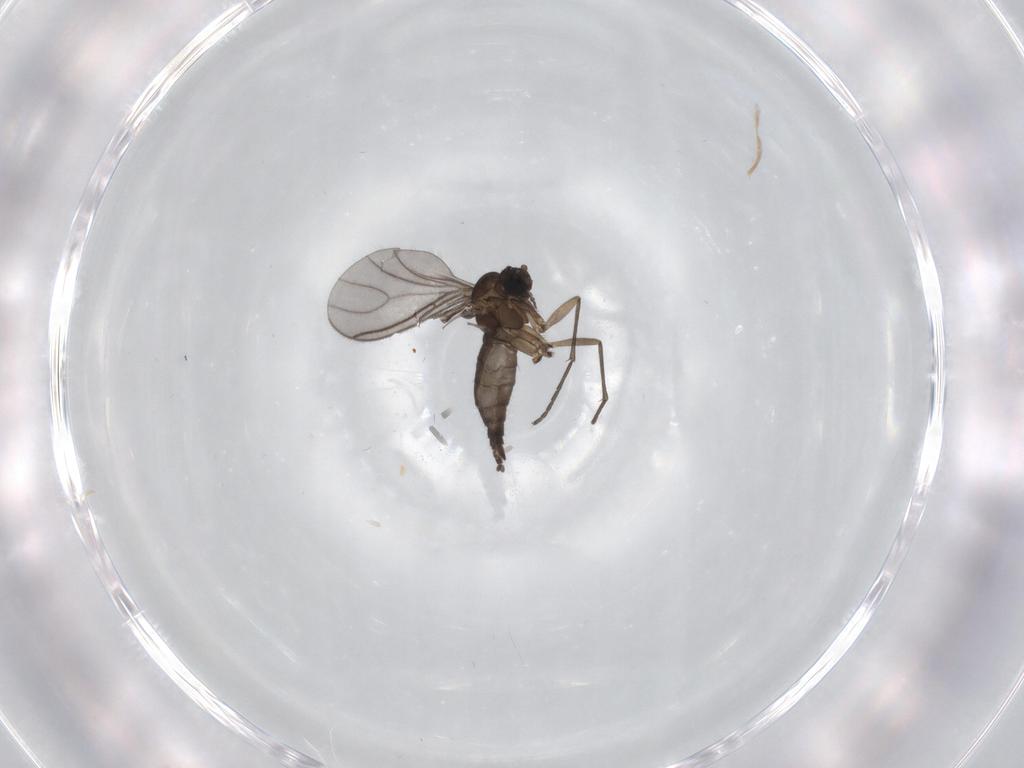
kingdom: Animalia
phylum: Arthropoda
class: Insecta
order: Diptera
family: Sciaridae
